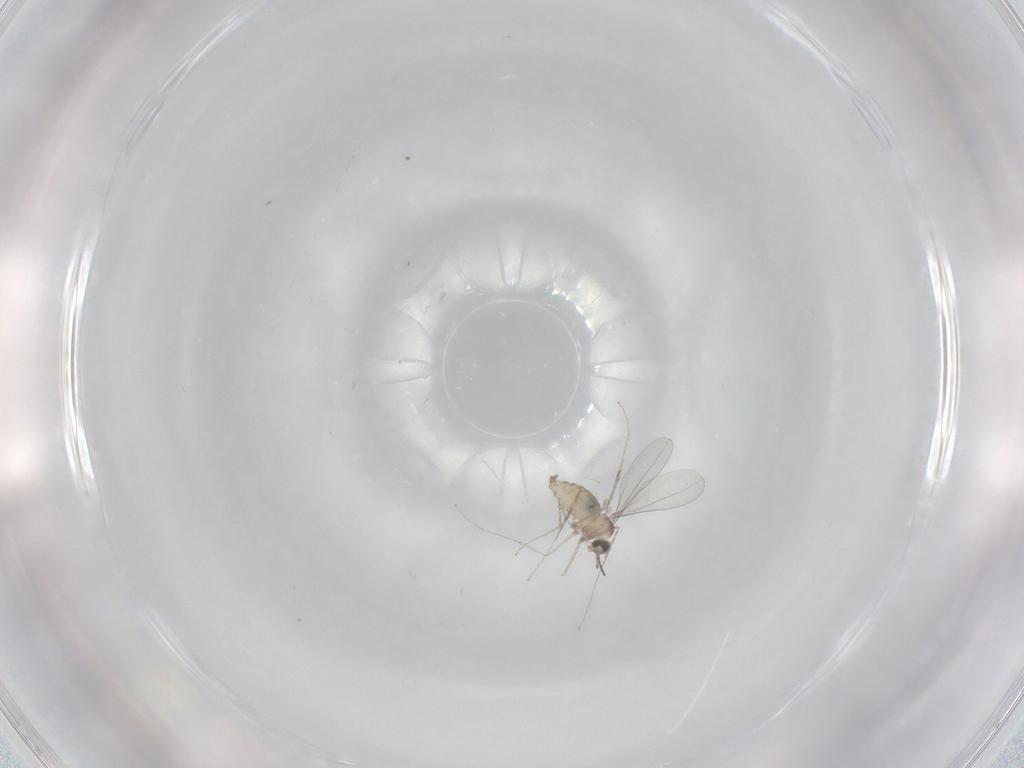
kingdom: Animalia
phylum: Arthropoda
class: Insecta
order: Diptera
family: Cecidomyiidae
